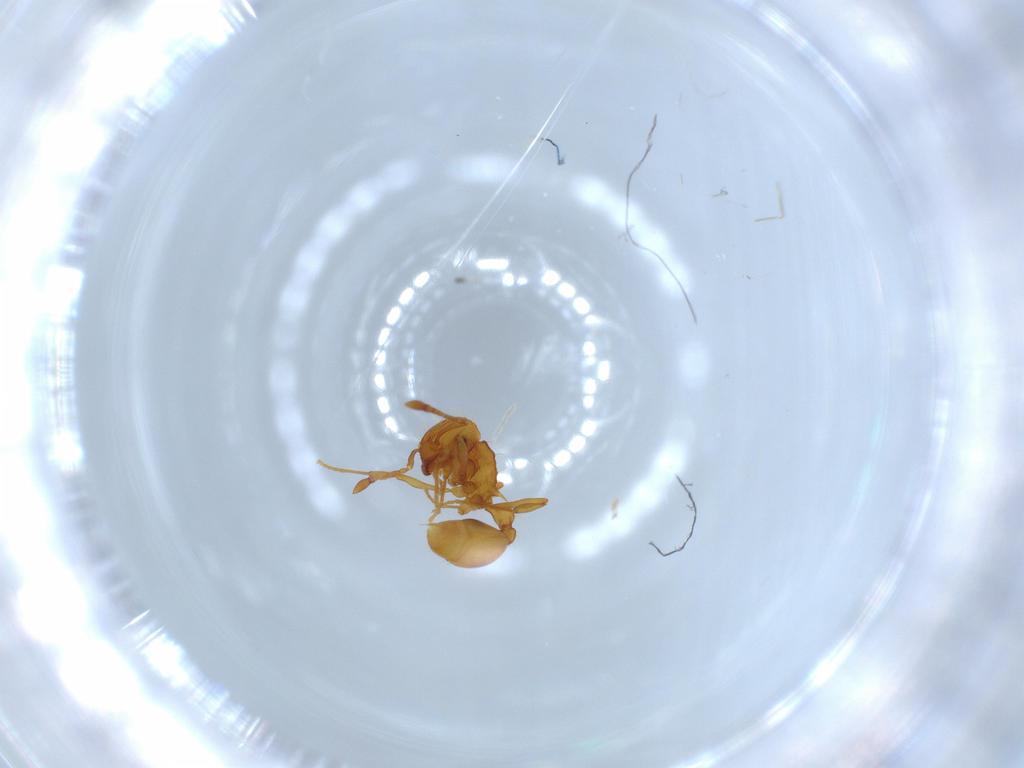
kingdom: Animalia
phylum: Arthropoda
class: Insecta
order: Hymenoptera
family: Formicidae
